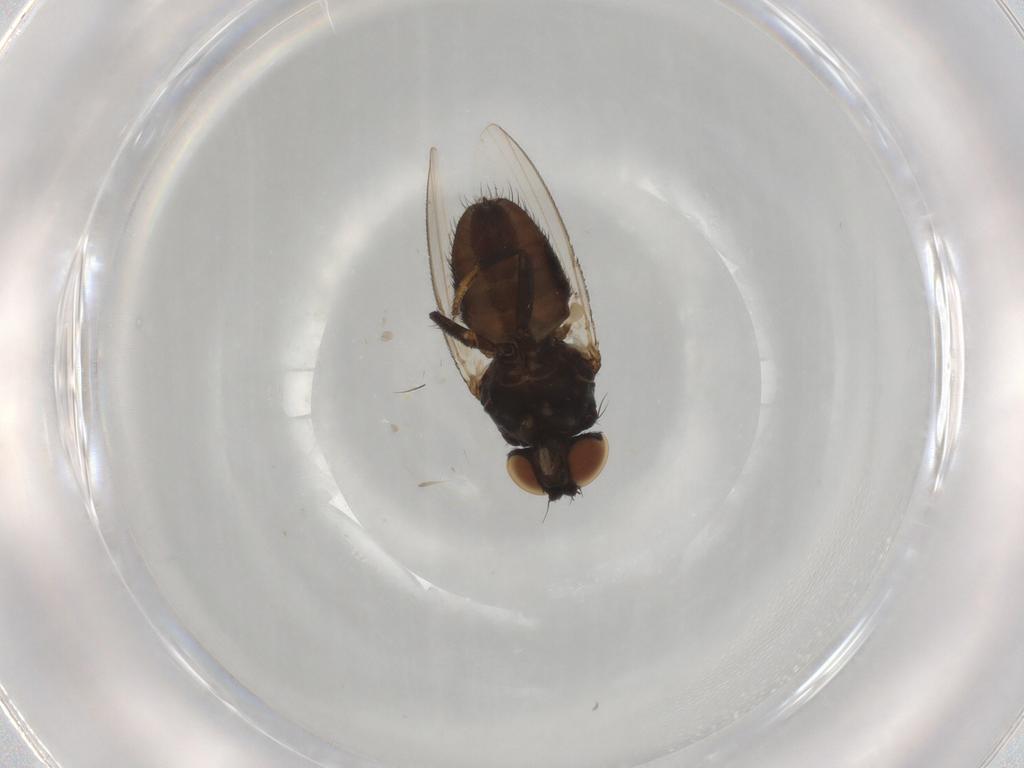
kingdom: Animalia
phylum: Arthropoda
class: Insecta
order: Diptera
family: Milichiidae
